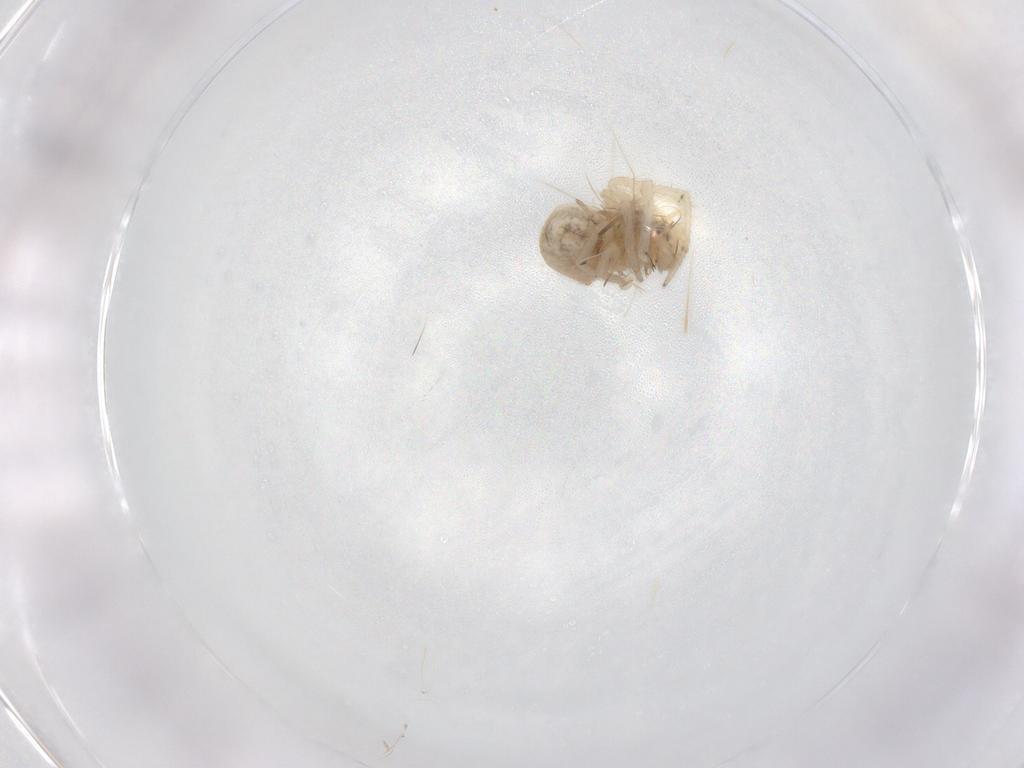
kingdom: Animalia
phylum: Arthropoda
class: Arachnida
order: Araneae
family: Theridiidae
